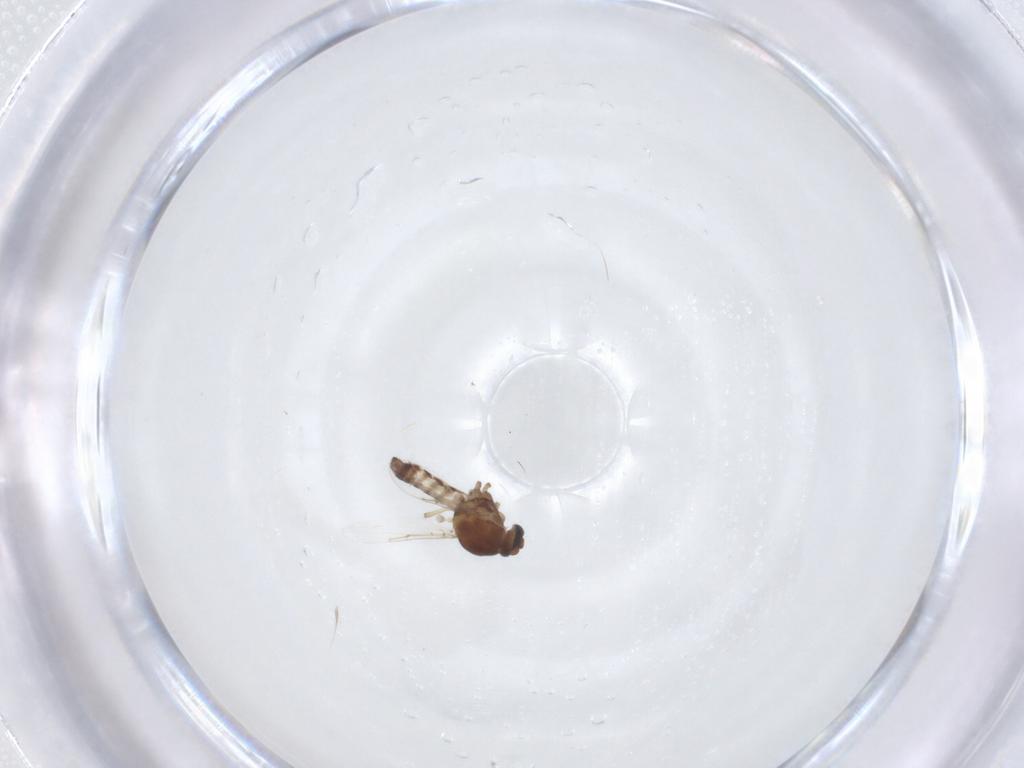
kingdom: Animalia
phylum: Arthropoda
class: Insecta
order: Diptera
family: Ceratopogonidae
